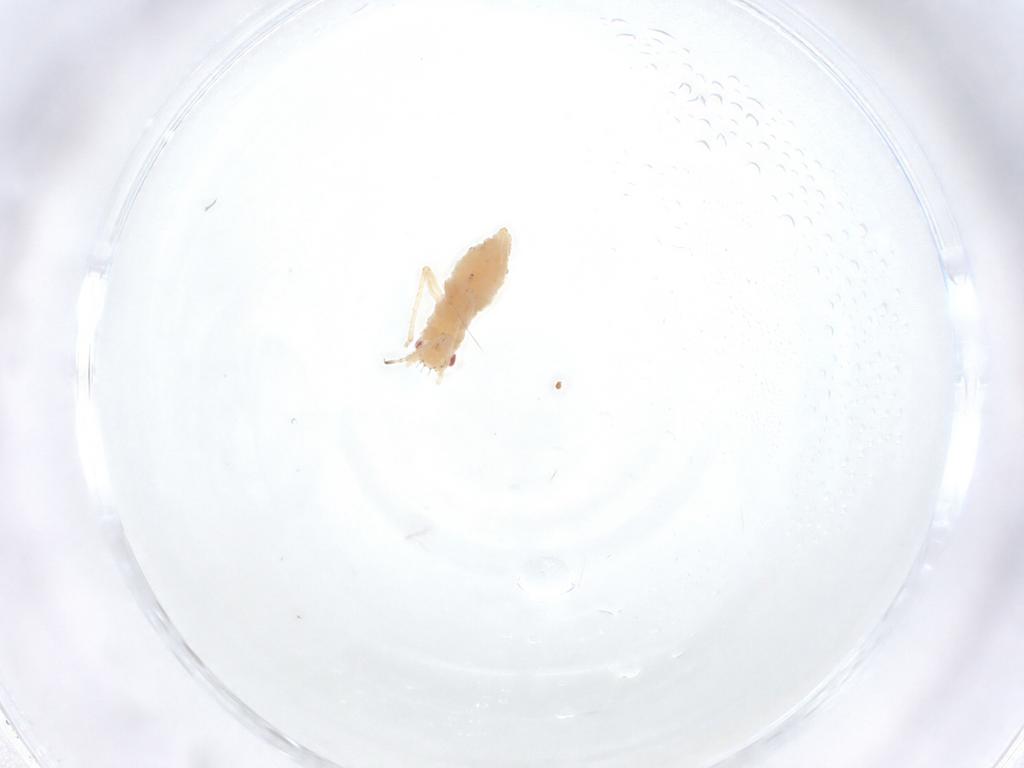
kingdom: Animalia
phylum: Arthropoda
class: Insecta
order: Hemiptera
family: Aphididae
